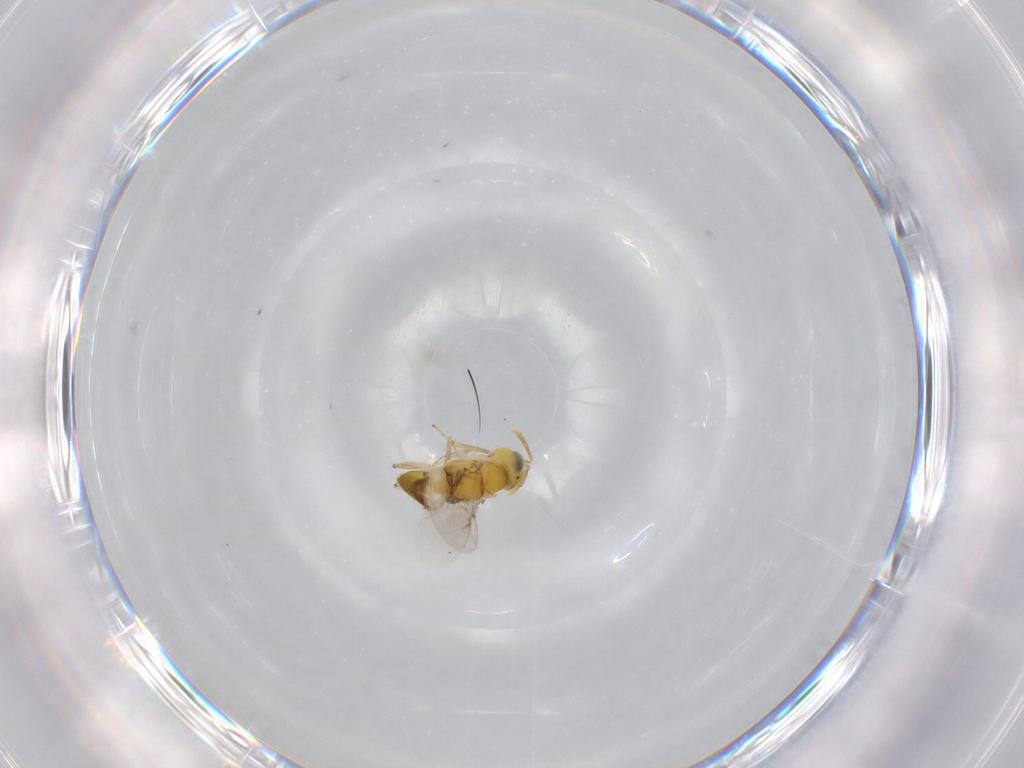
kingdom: Animalia
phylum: Arthropoda
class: Insecta
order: Hymenoptera
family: Encyrtidae
